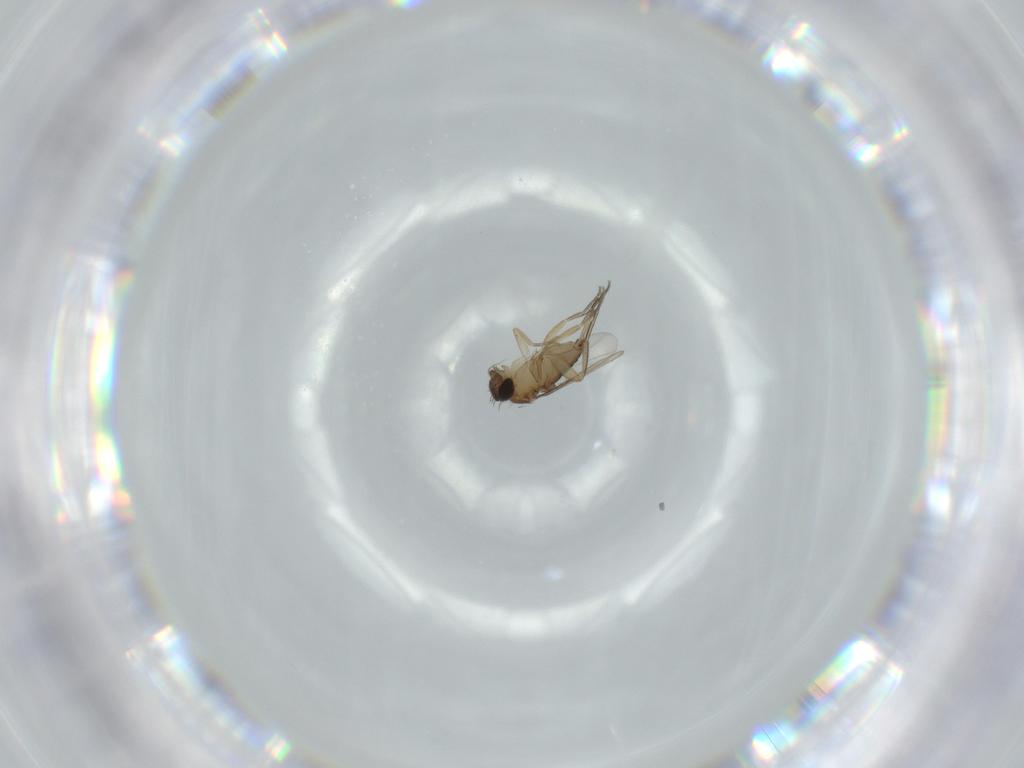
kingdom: Animalia
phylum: Arthropoda
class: Insecta
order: Diptera
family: Phoridae
